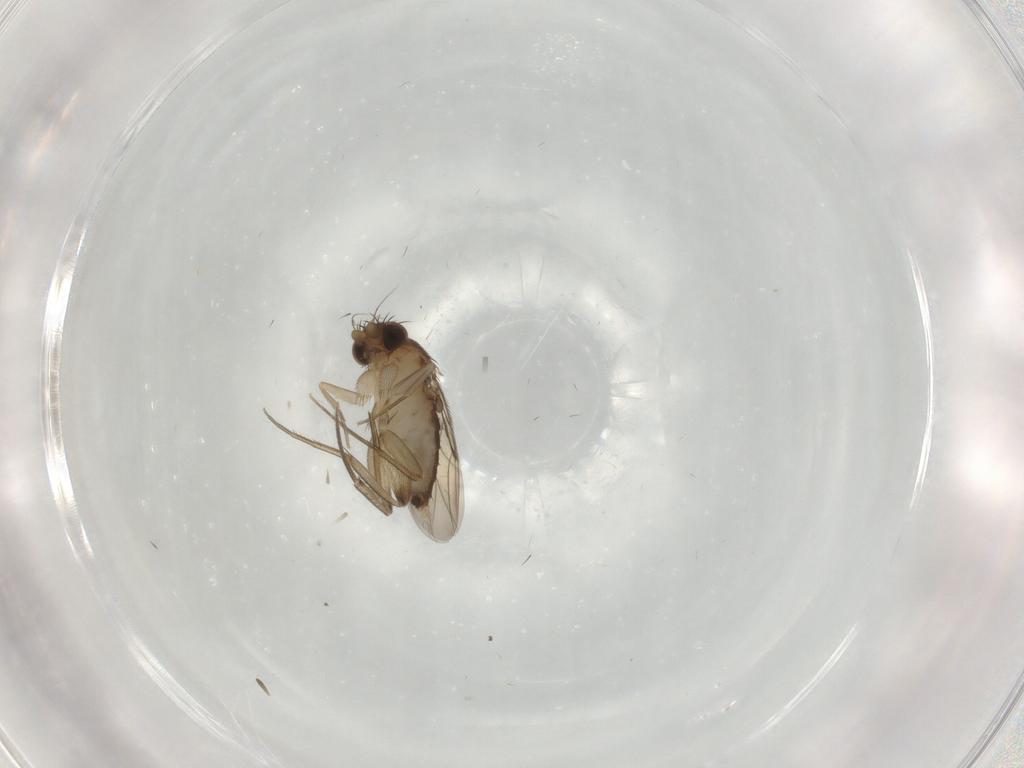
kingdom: Animalia
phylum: Arthropoda
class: Insecta
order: Diptera
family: Phoridae
